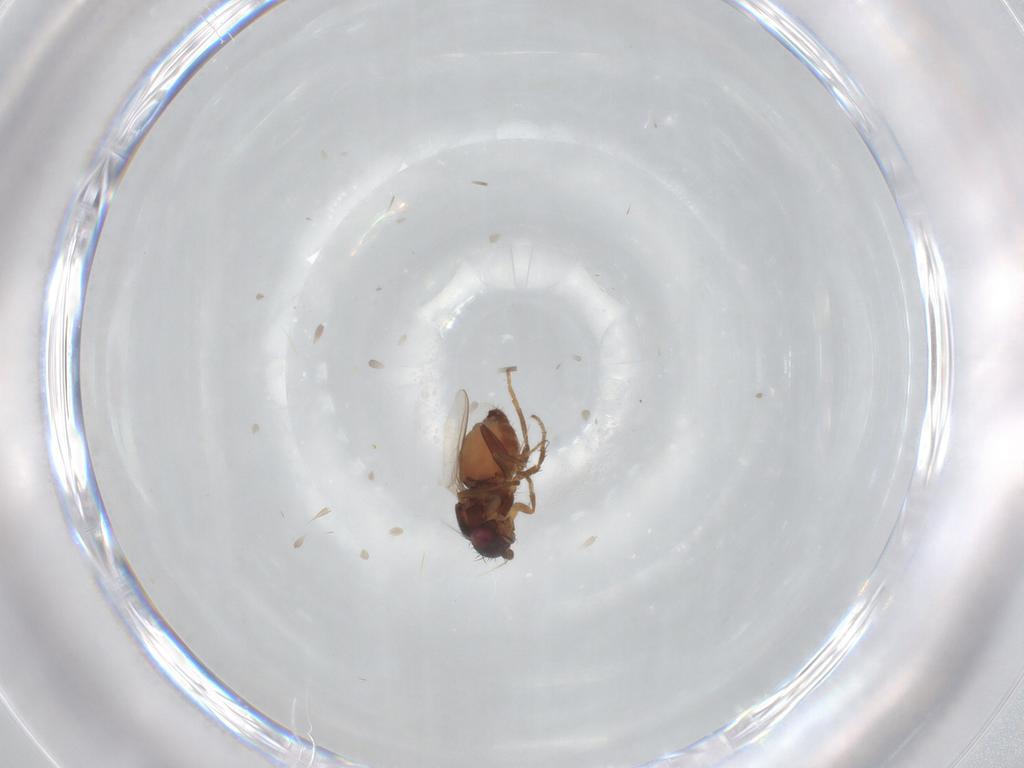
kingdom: Animalia
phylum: Arthropoda
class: Insecta
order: Diptera
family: Sphaeroceridae
